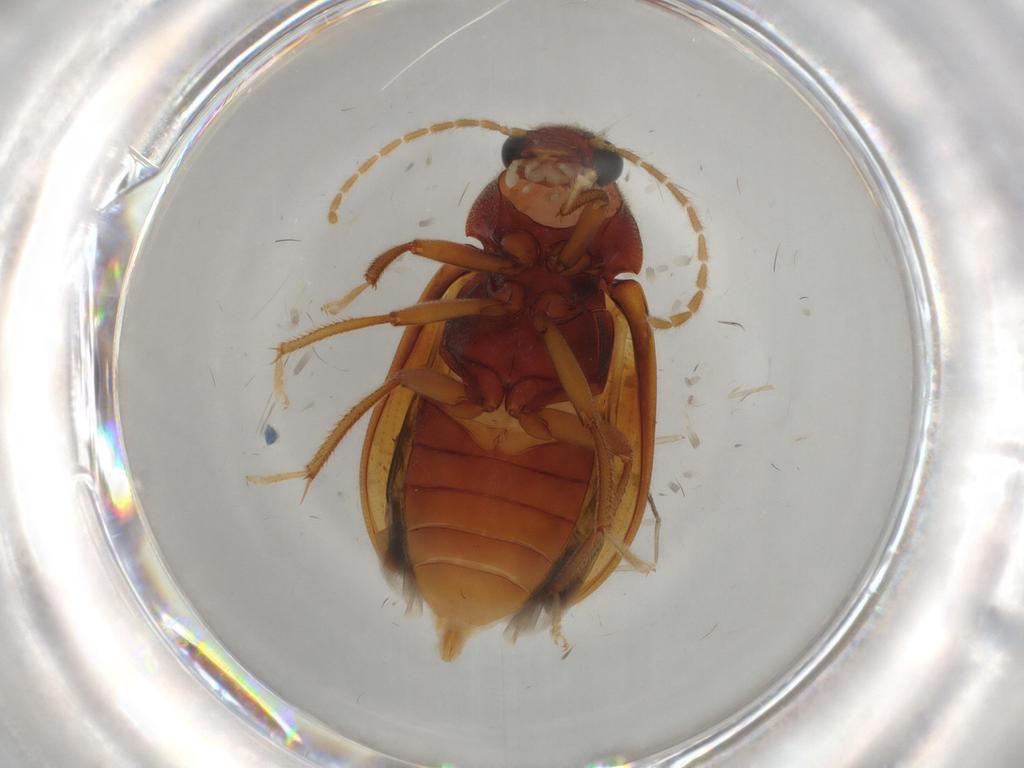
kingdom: Animalia
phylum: Arthropoda
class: Insecta
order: Coleoptera
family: Ptilodactylidae
